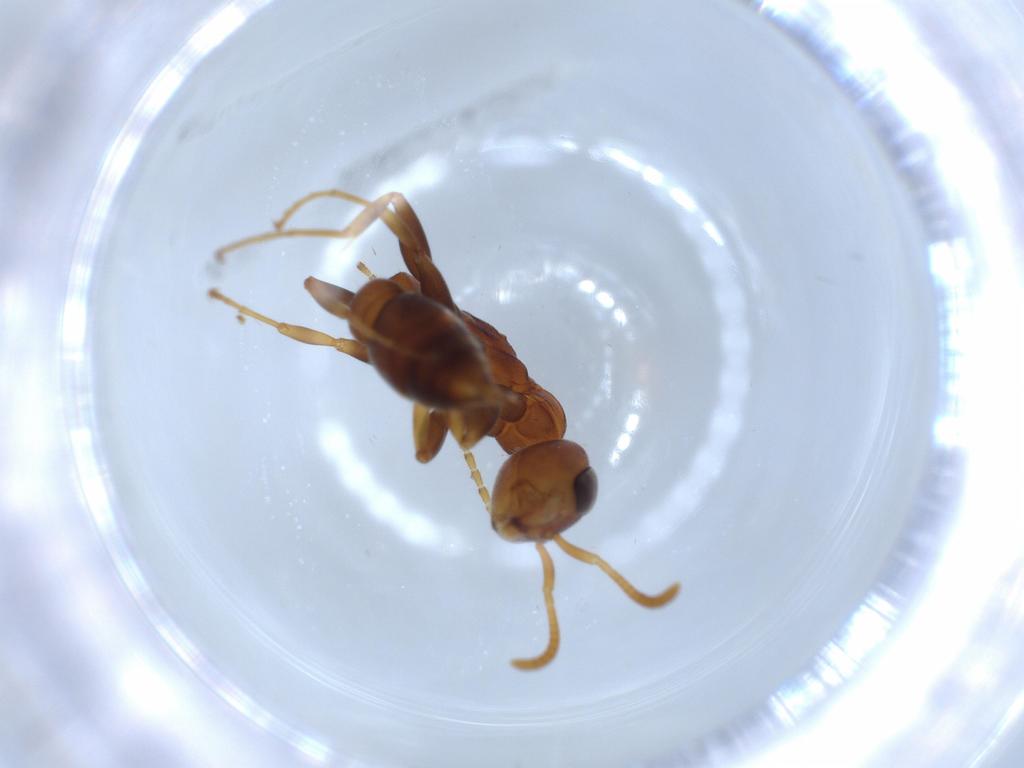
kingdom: Animalia
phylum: Arthropoda
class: Insecta
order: Hymenoptera
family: Formicidae
